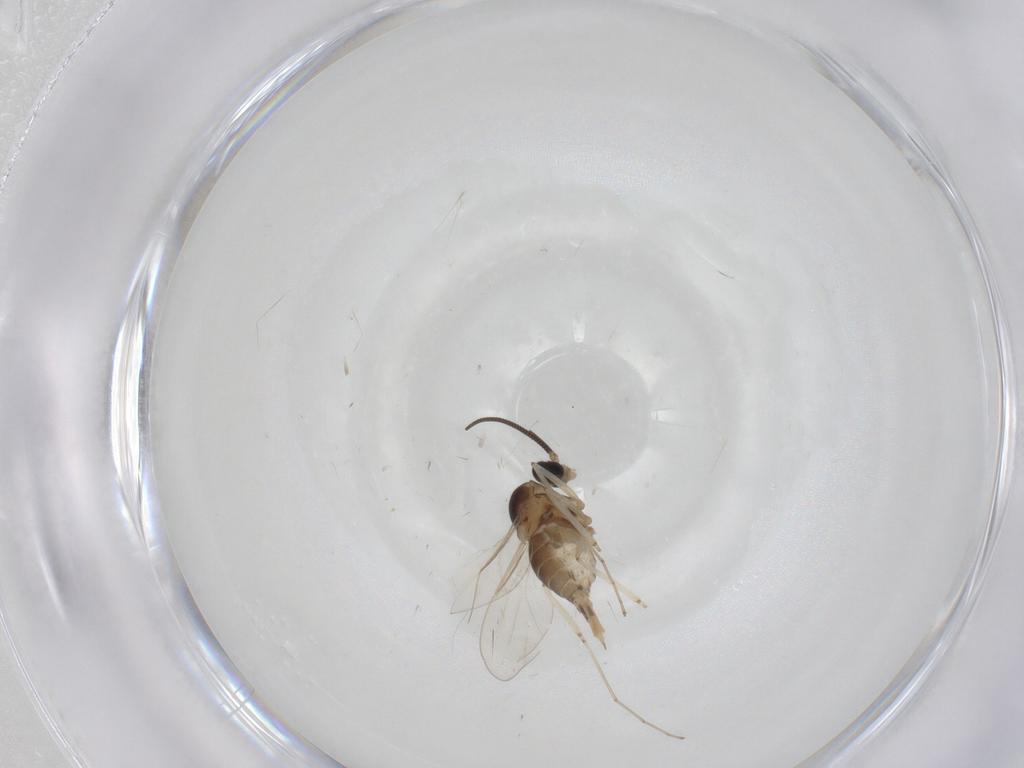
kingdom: Animalia
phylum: Arthropoda
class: Insecta
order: Diptera
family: Cecidomyiidae
